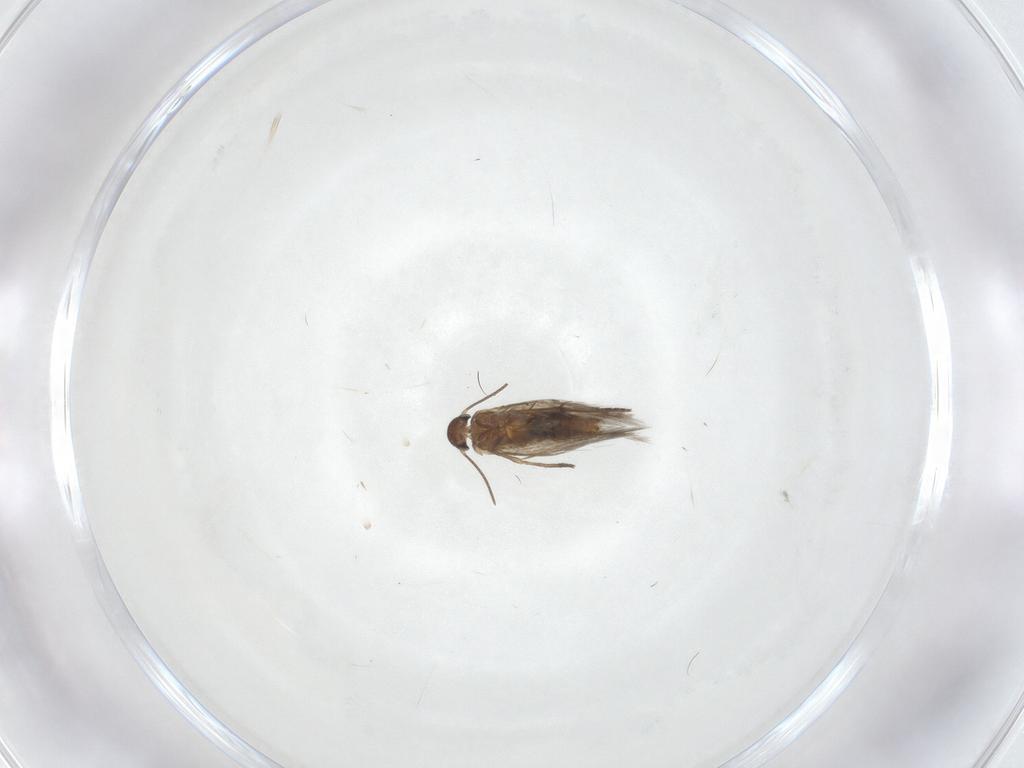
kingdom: Animalia
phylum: Arthropoda
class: Insecta
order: Lepidoptera
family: Heliozelidae
